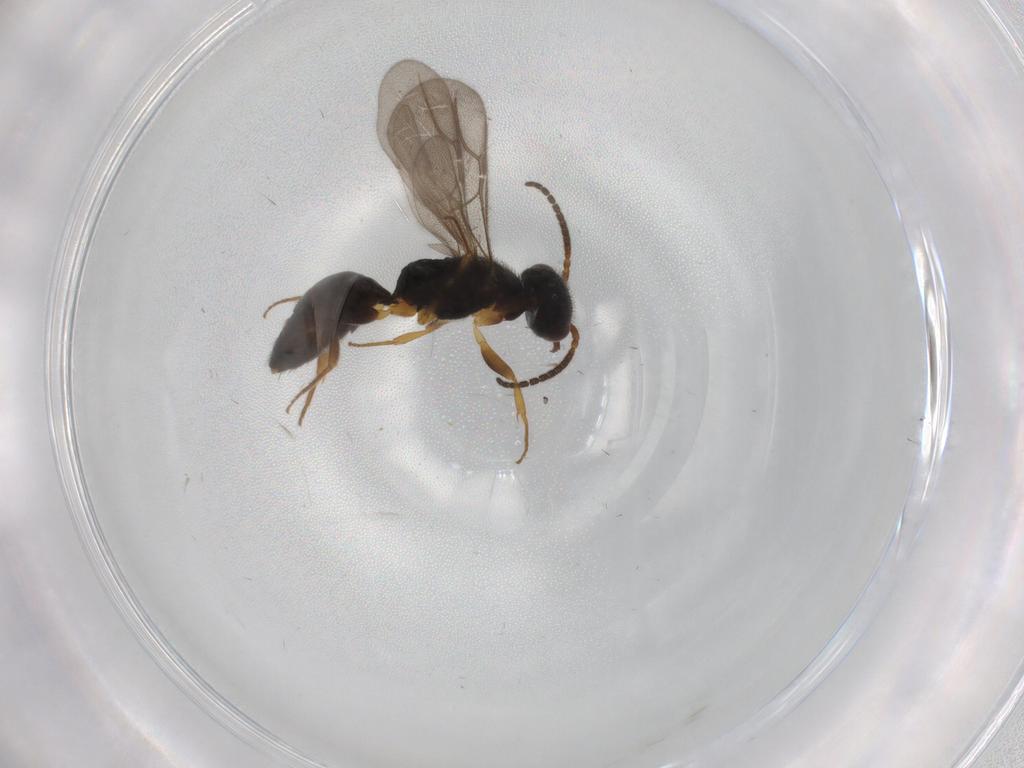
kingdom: Animalia
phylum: Arthropoda
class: Insecta
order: Hymenoptera
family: Bethylidae
